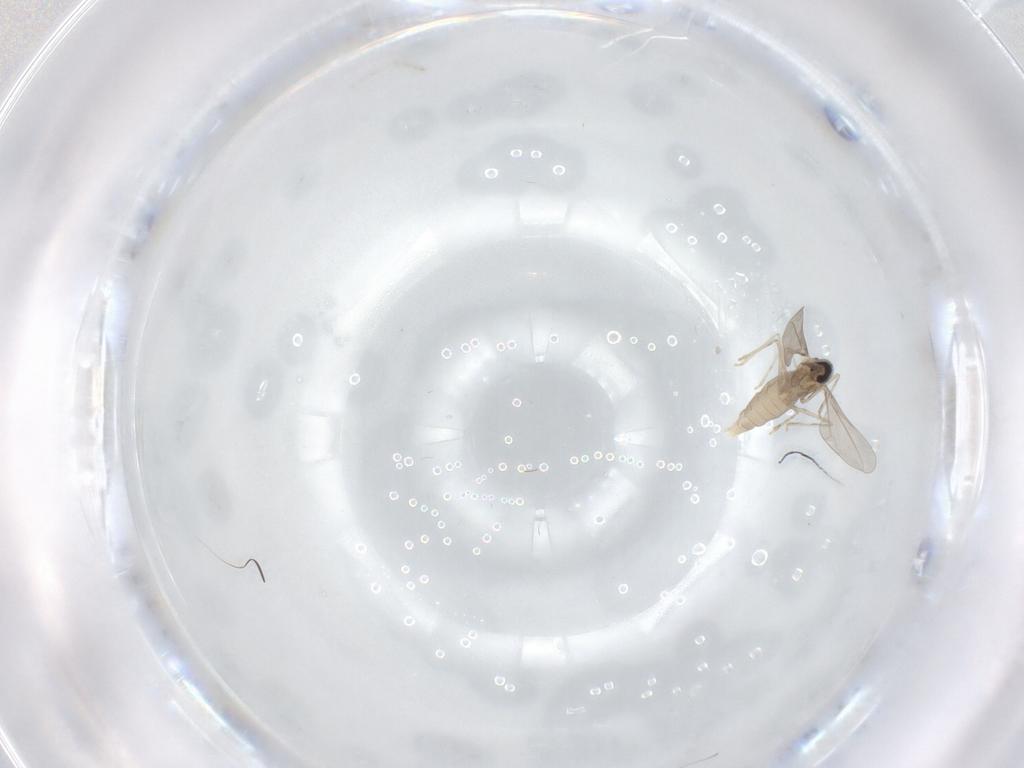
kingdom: Animalia
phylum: Arthropoda
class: Insecta
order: Diptera
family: Cecidomyiidae
